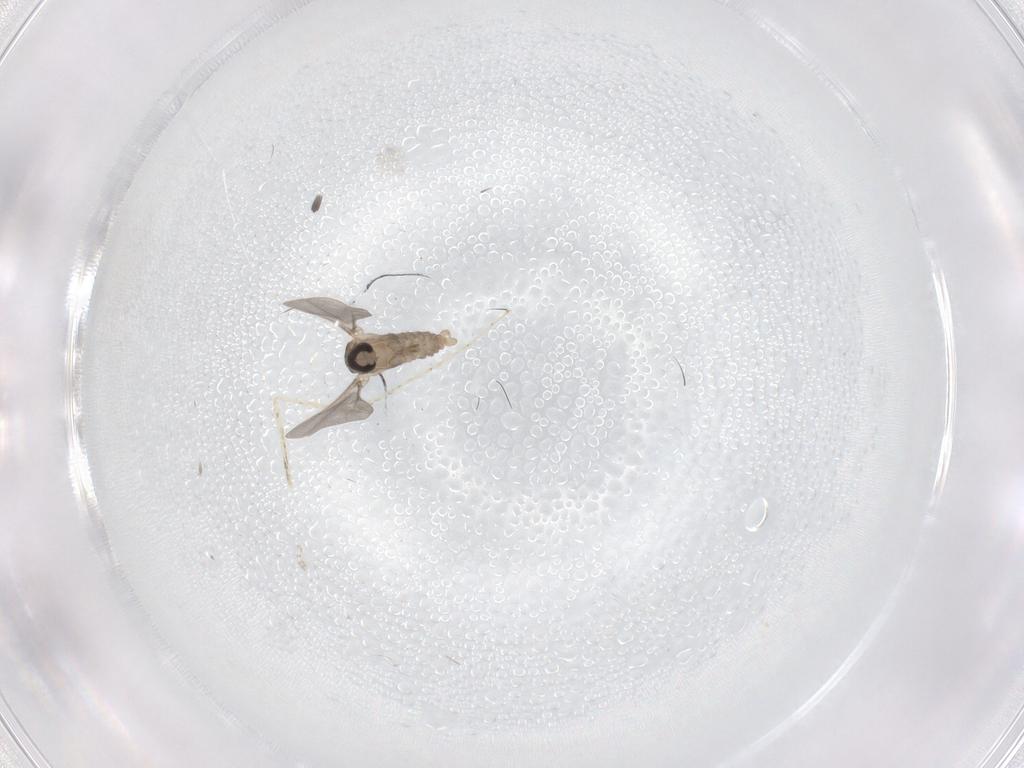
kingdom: Animalia
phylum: Arthropoda
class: Insecta
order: Diptera
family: Cecidomyiidae
